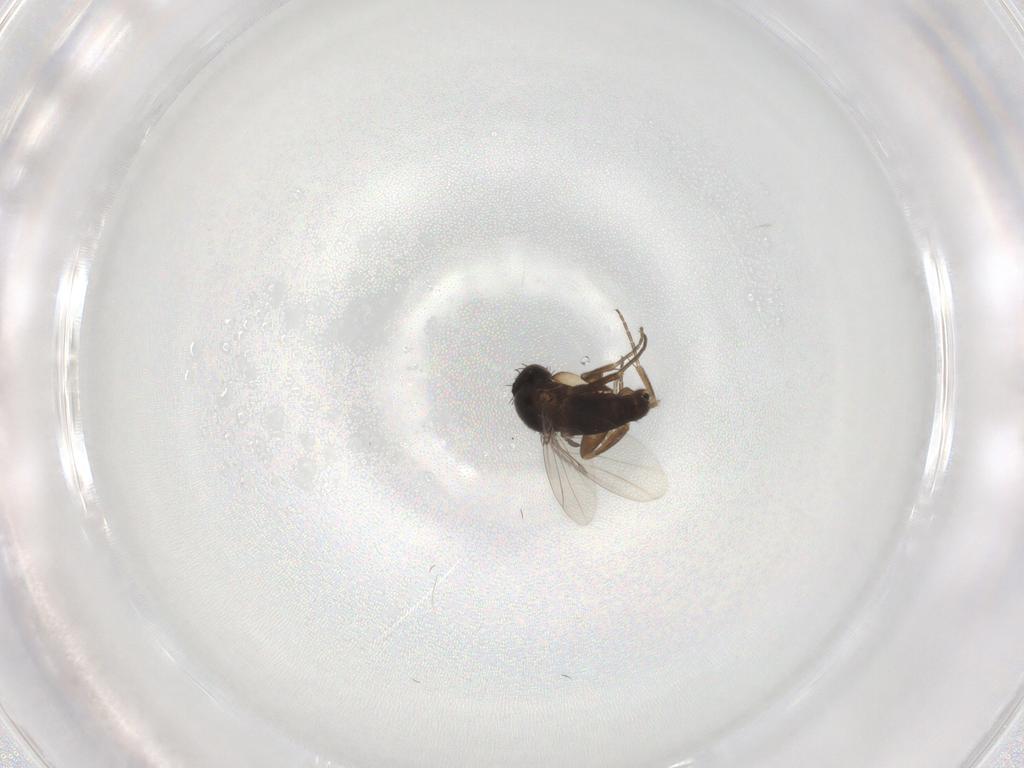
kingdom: Animalia
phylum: Arthropoda
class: Insecta
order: Diptera
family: Phoridae
